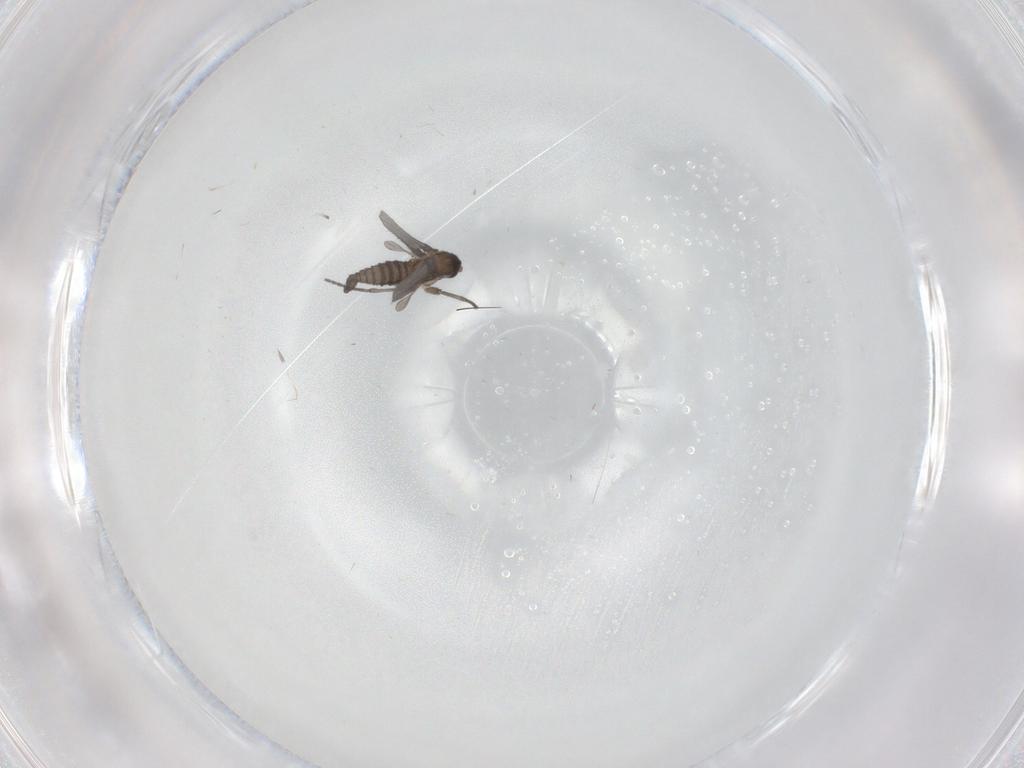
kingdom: Animalia
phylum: Arthropoda
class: Insecta
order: Diptera
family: Sciaridae
